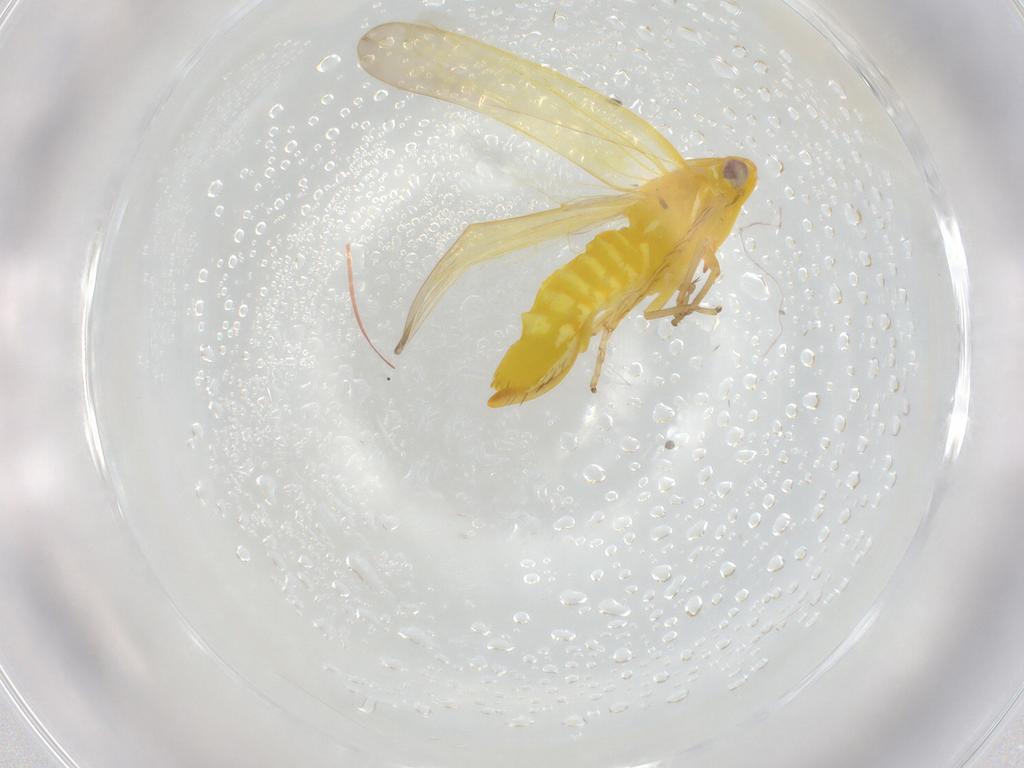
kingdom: Animalia
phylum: Arthropoda
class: Insecta
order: Hemiptera
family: Cicadellidae
